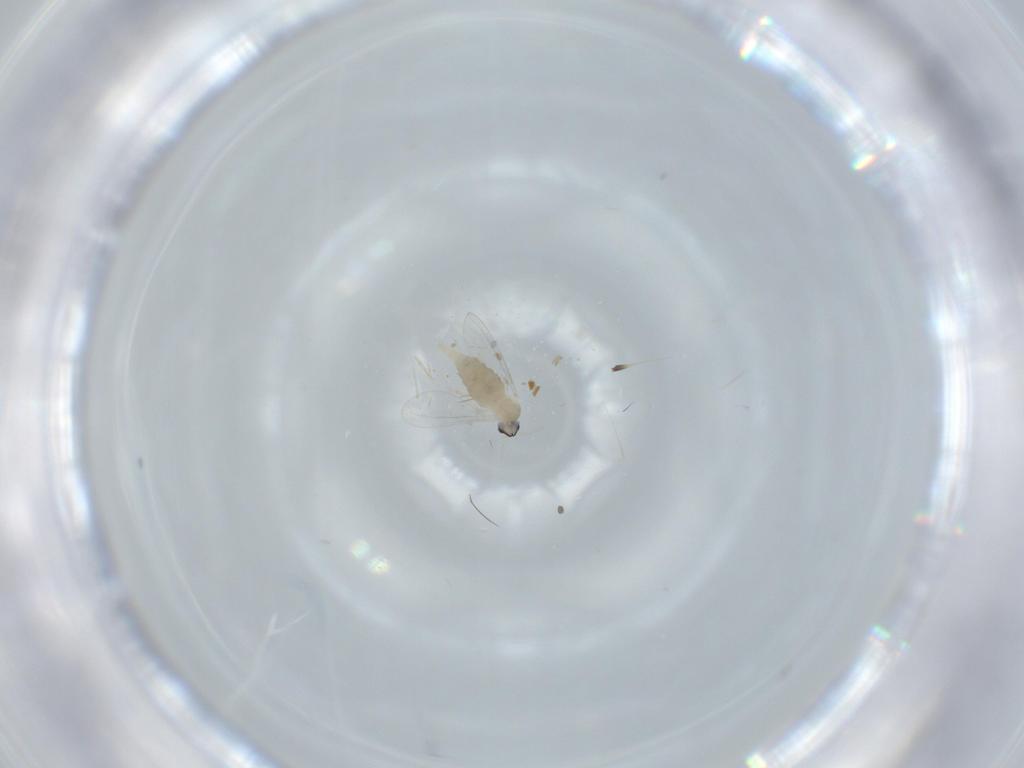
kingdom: Animalia
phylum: Arthropoda
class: Insecta
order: Diptera
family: Cecidomyiidae
